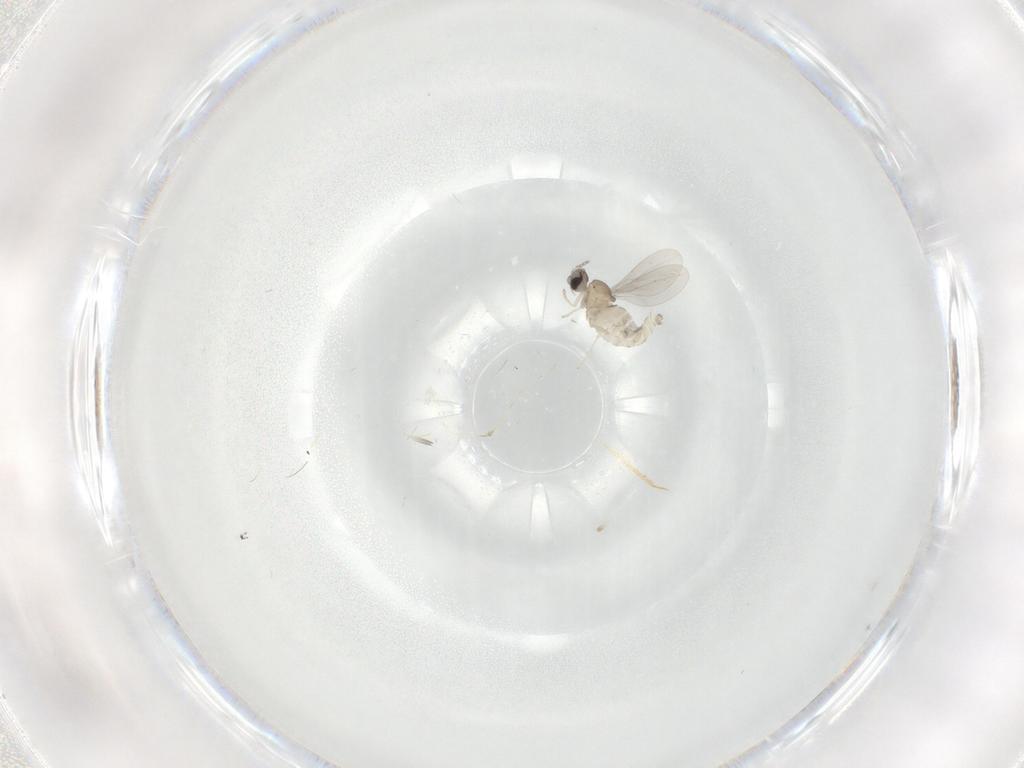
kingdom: Animalia
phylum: Arthropoda
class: Insecta
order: Diptera
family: Cecidomyiidae
